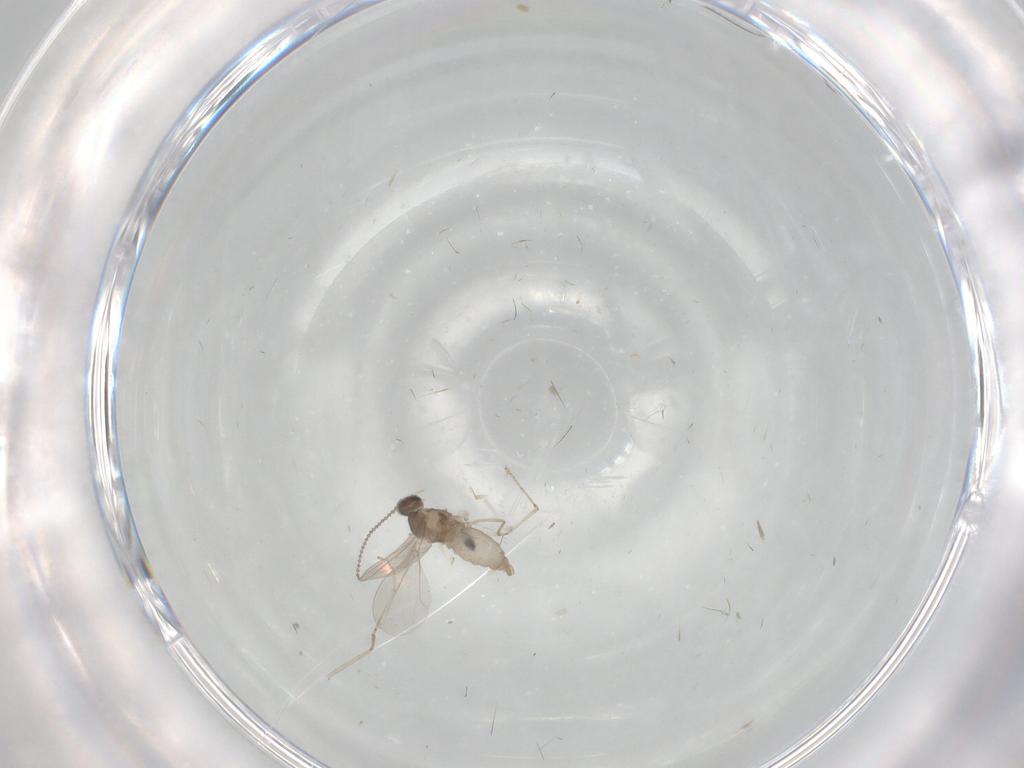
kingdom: Animalia
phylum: Arthropoda
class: Insecta
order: Diptera
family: Cecidomyiidae
